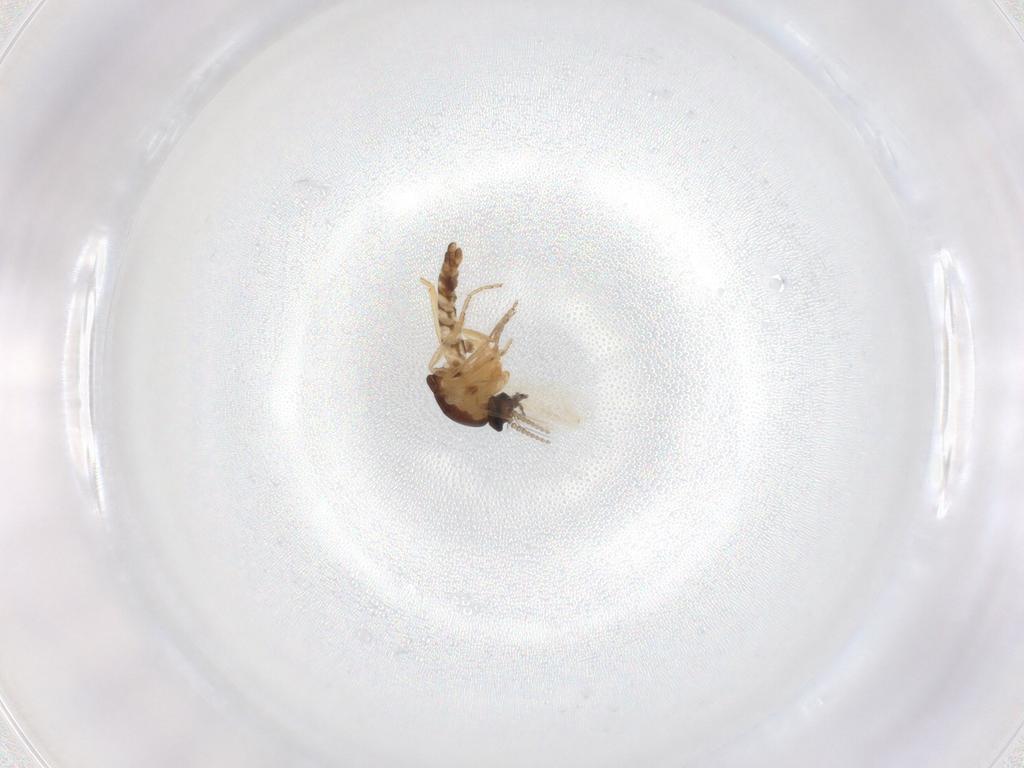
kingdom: Animalia
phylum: Arthropoda
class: Insecta
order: Diptera
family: Ceratopogonidae
